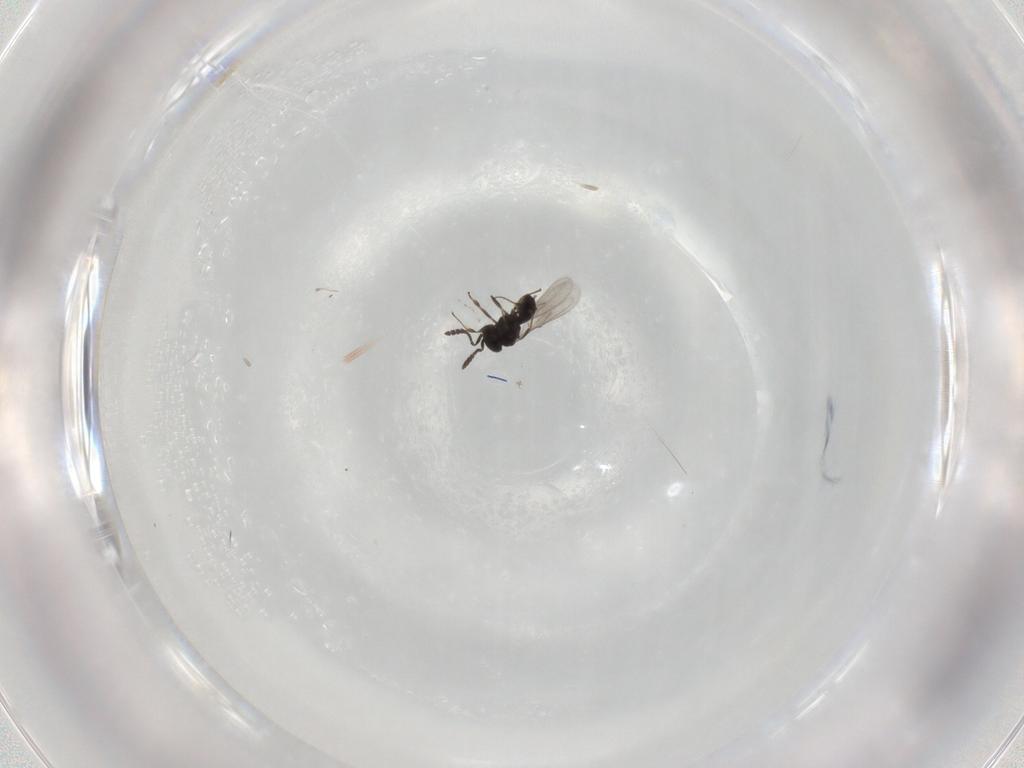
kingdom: Animalia
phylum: Arthropoda
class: Insecta
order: Hymenoptera
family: Scelionidae
